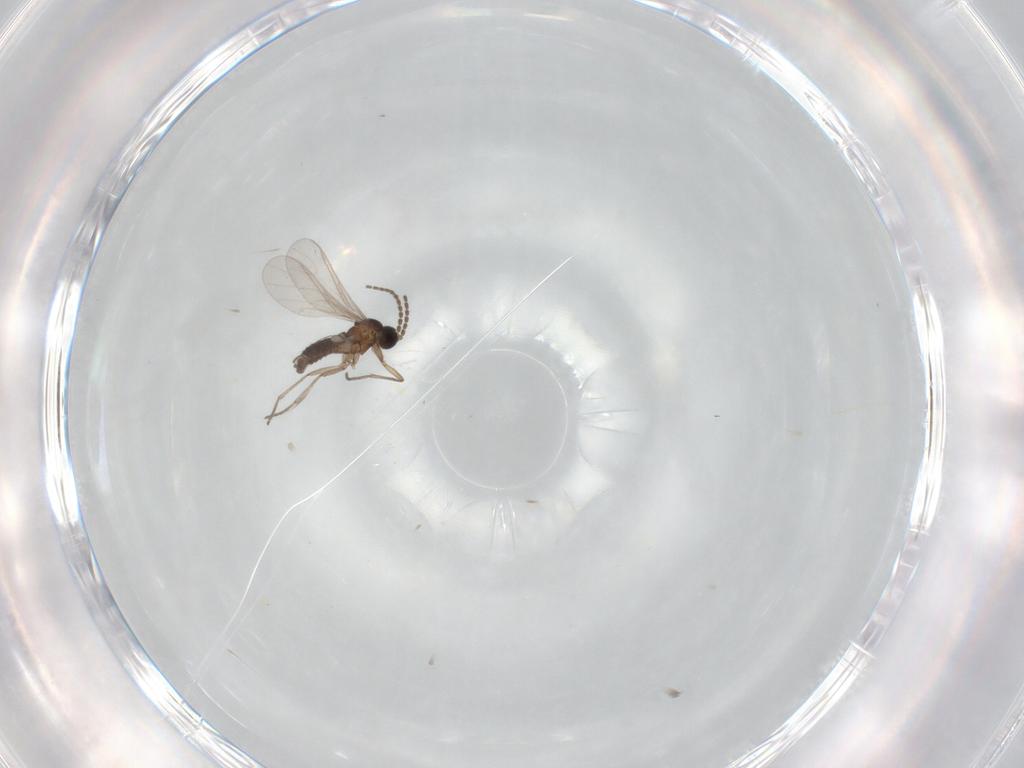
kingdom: Animalia
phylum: Arthropoda
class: Insecta
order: Diptera
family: Sciaridae
